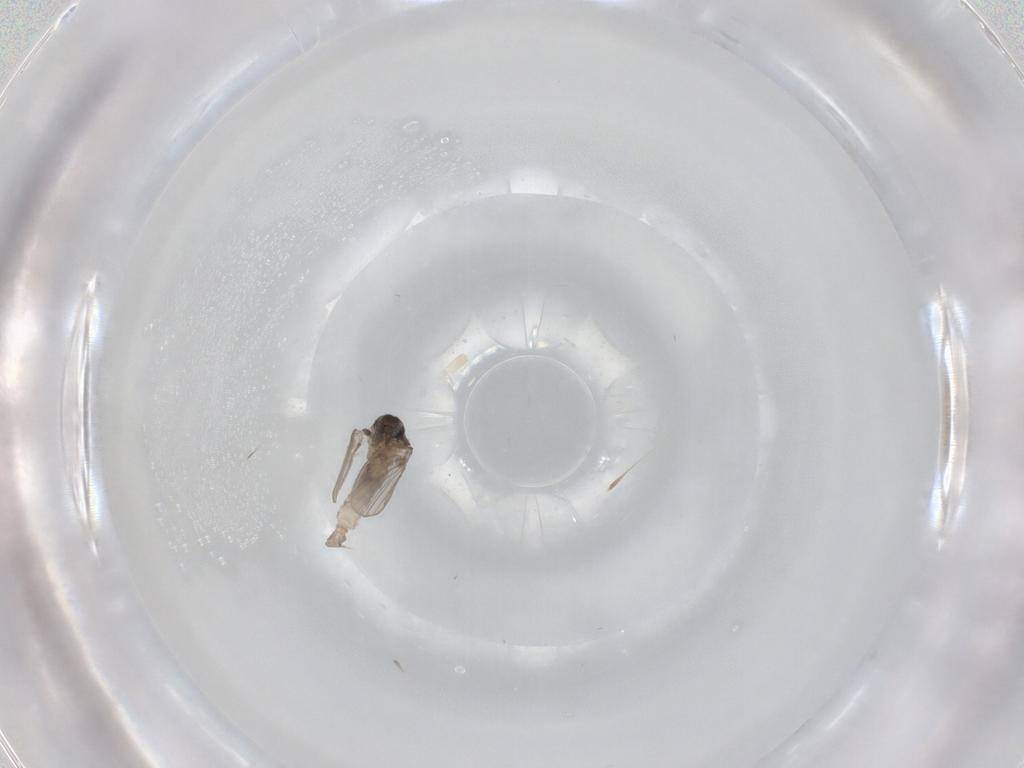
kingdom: Animalia
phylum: Arthropoda
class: Insecta
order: Diptera
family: Psychodidae
